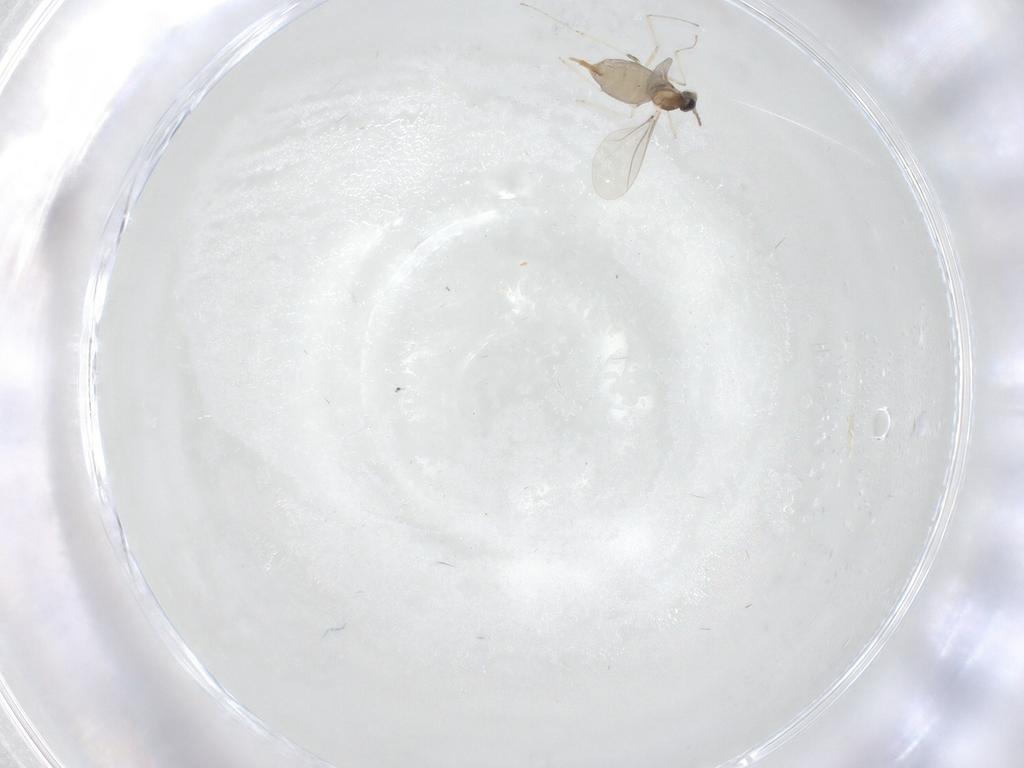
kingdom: Animalia
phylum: Arthropoda
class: Insecta
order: Diptera
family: Cecidomyiidae
